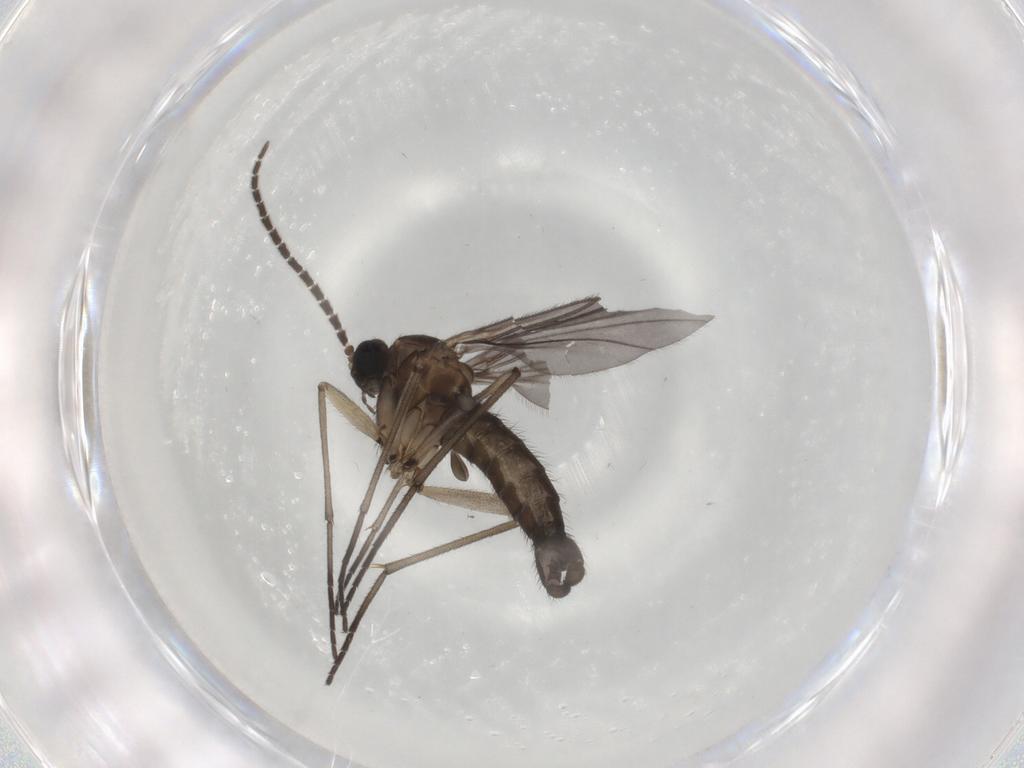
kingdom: Animalia
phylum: Arthropoda
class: Insecta
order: Diptera
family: Sciaridae
